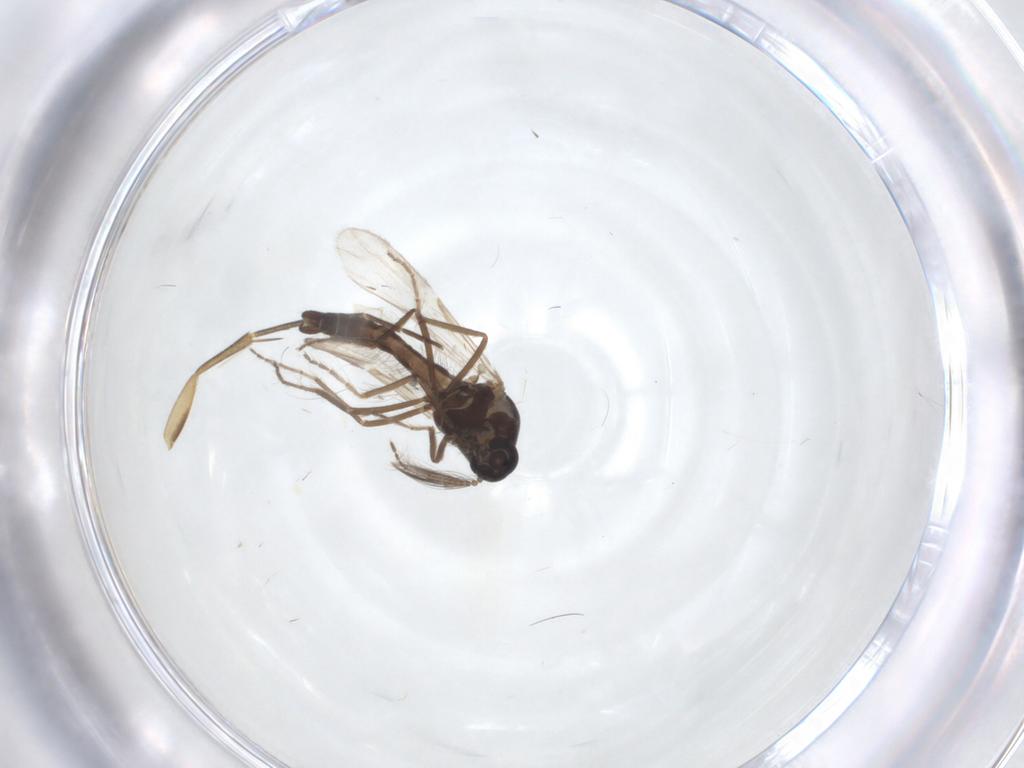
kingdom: Animalia
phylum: Arthropoda
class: Insecta
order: Diptera
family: Ceratopogonidae
